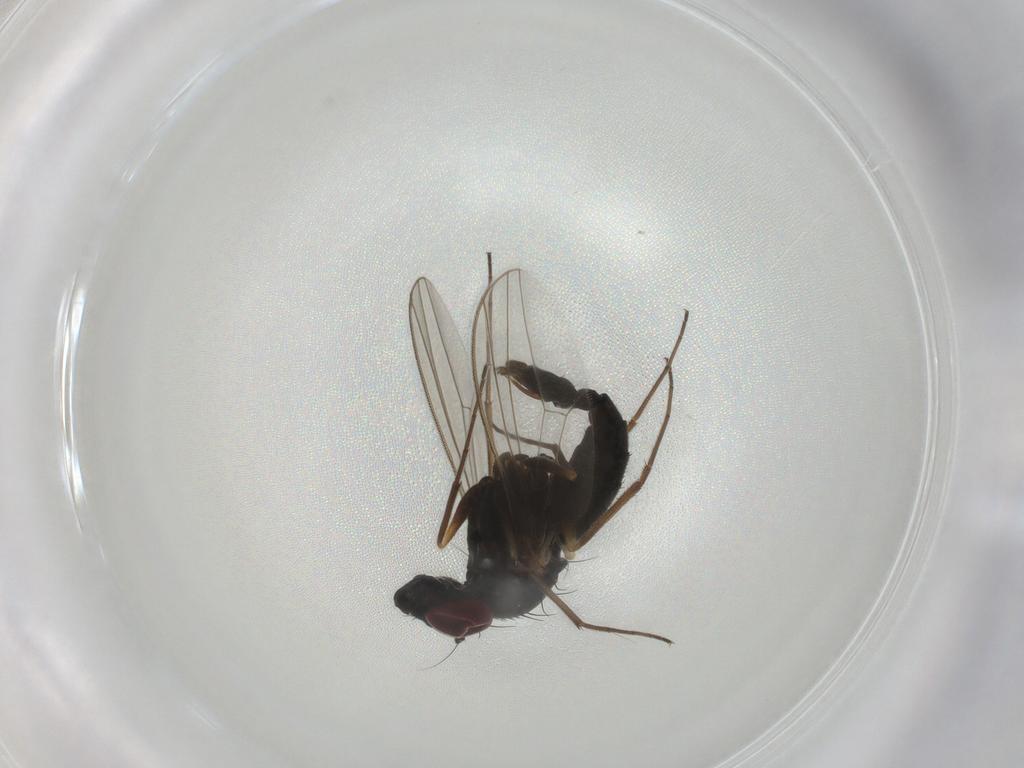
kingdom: Animalia
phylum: Arthropoda
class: Insecta
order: Diptera
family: Dolichopodidae
